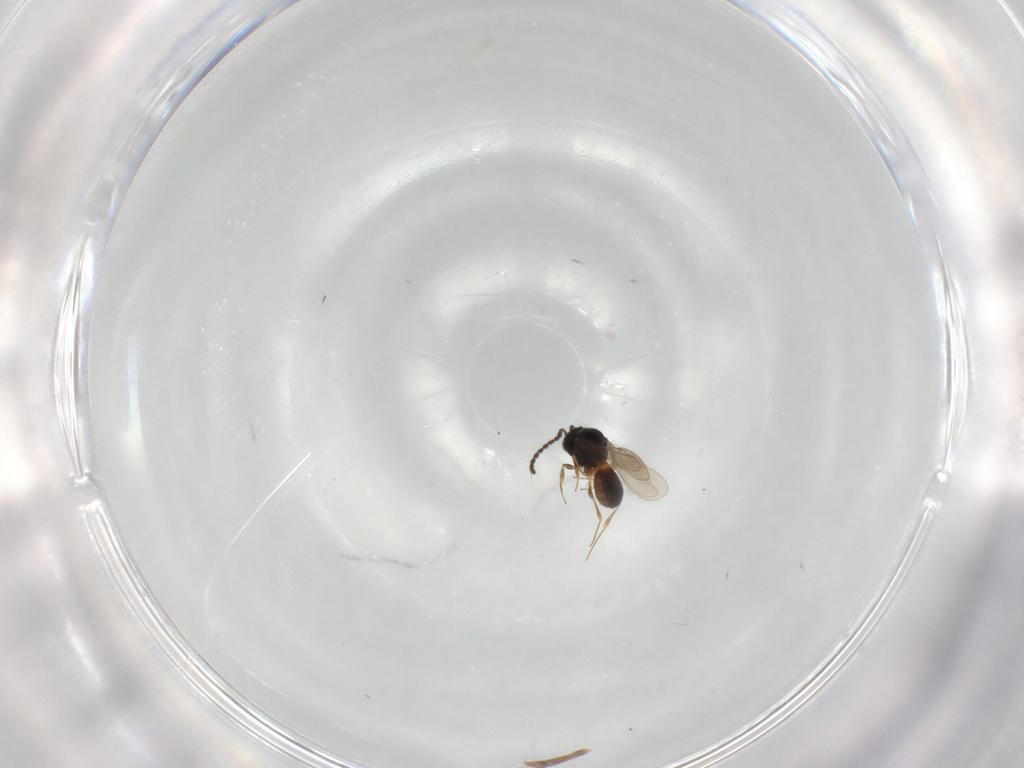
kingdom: Animalia
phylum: Arthropoda
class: Insecta
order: Hymenoptera
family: Scelionidae
